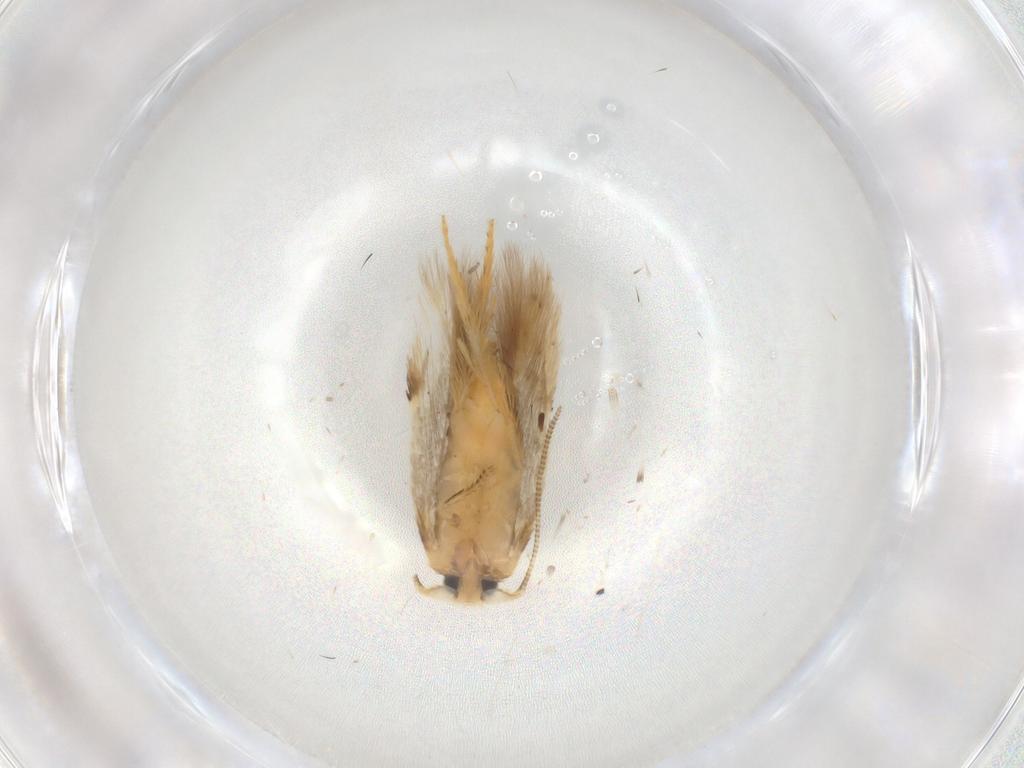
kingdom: Animalia
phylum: Arthropoda
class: Insecta
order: Lepidoptera
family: Opostegidae
